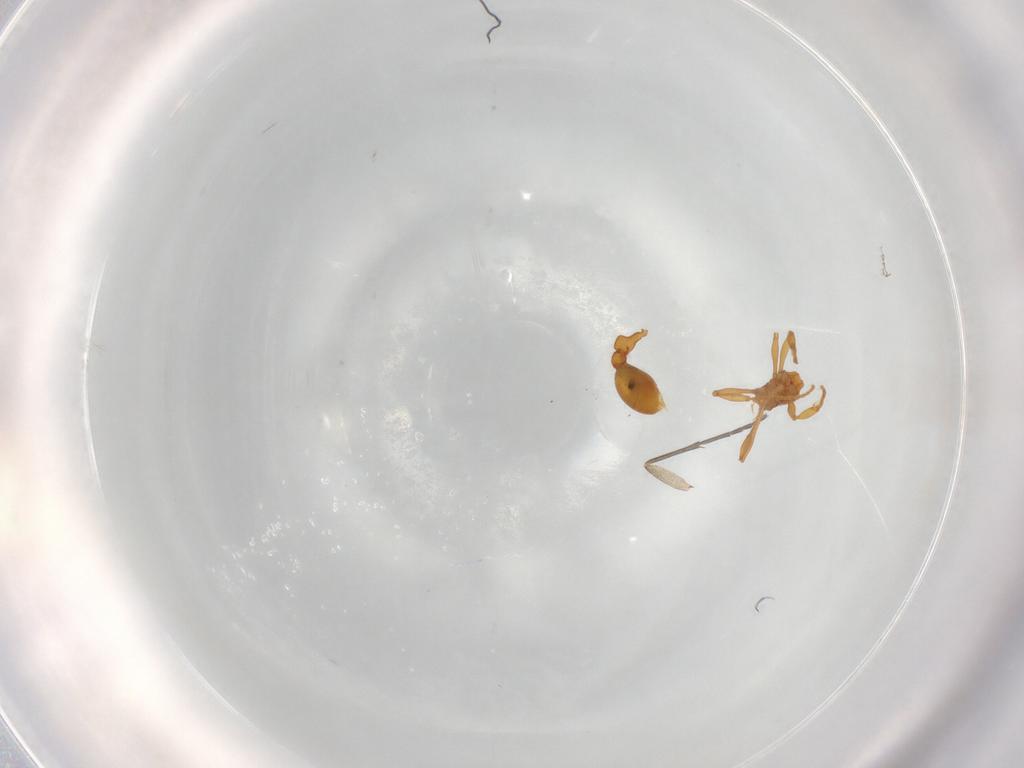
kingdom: Animalia
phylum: Arthropoda
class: Insecta
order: Hymenoptera
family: Formicidae
